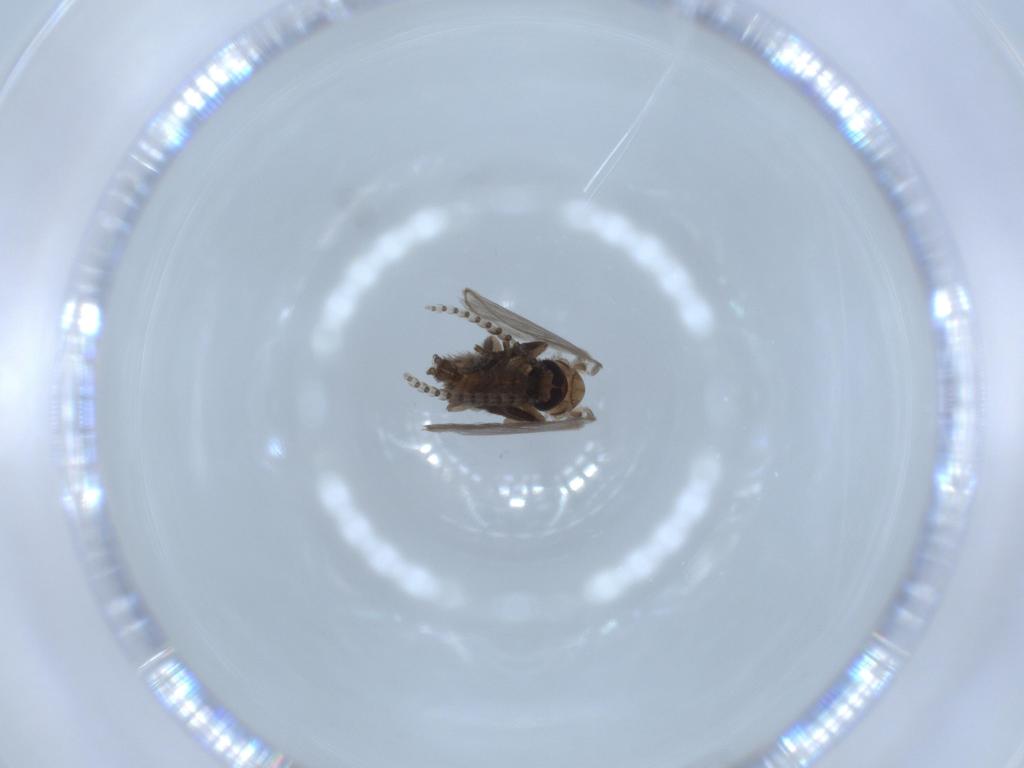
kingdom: Animalia
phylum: Arthropoda
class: Insecta
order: Diptera
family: Psychodidae
